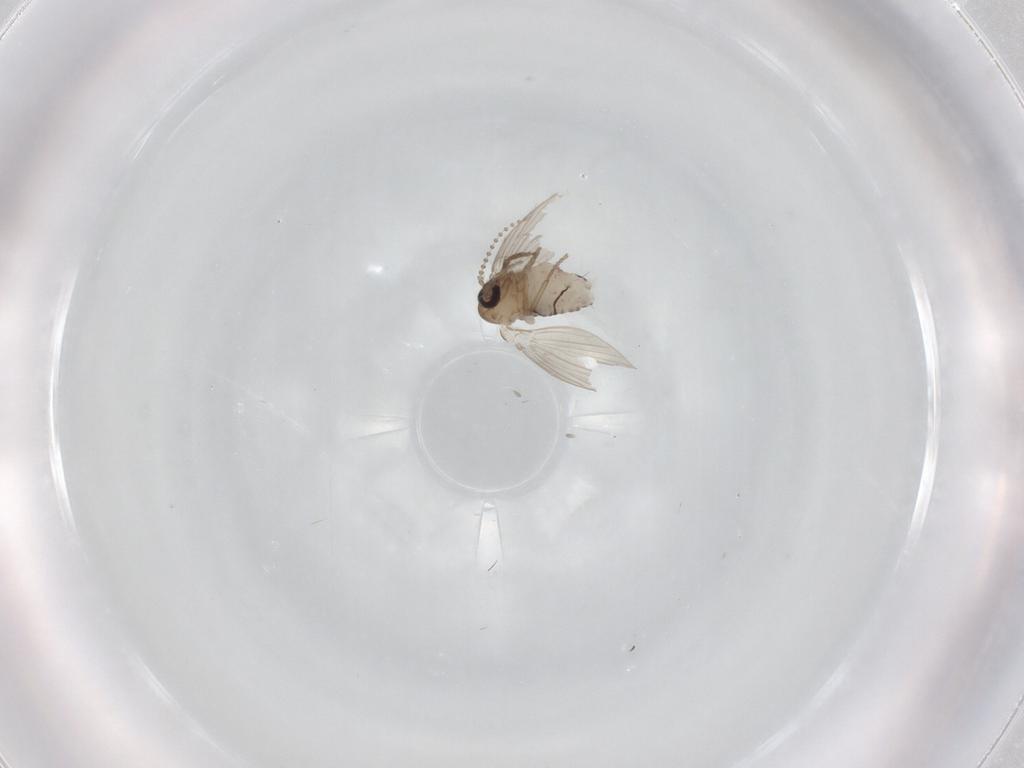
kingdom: Animalia
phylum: Arthropoda
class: Insecta
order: Diptera
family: Psychodidae
